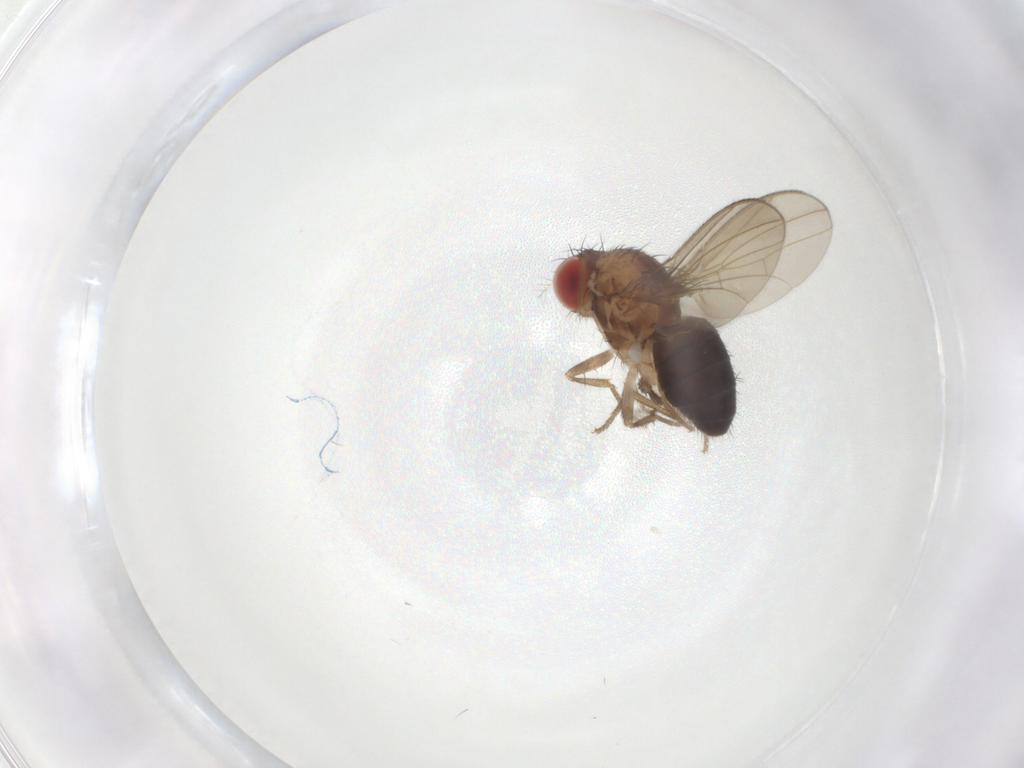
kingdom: Animalia
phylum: Arthropoda
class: Insecta
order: Diptera
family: Drosophilidae
